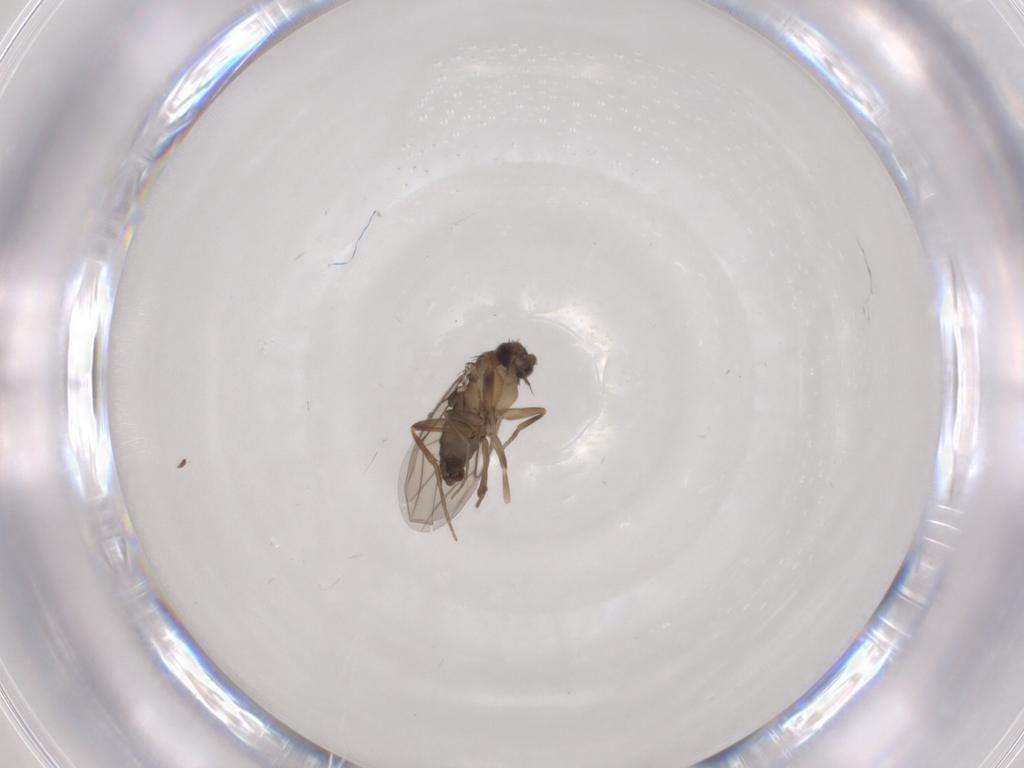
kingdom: Animalia
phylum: Arthropoda
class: Insecta
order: Diptera
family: Phoridae
